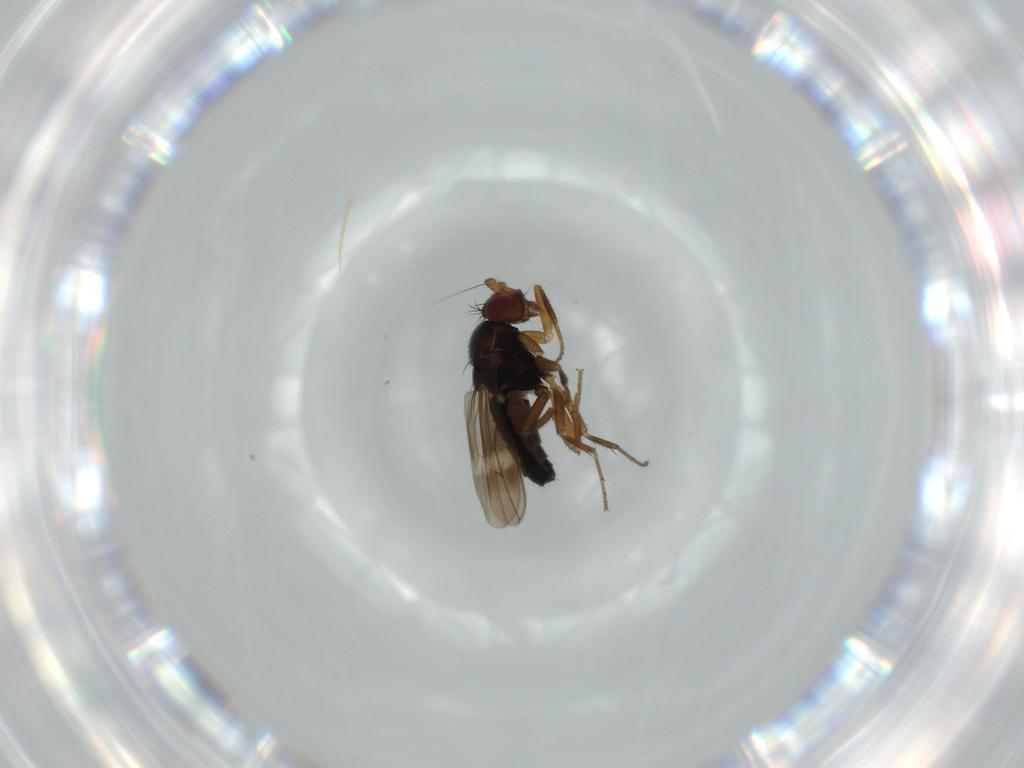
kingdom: Animalia
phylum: Arthropoda
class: Insecta
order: Diptera
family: Sphaeroceridae
